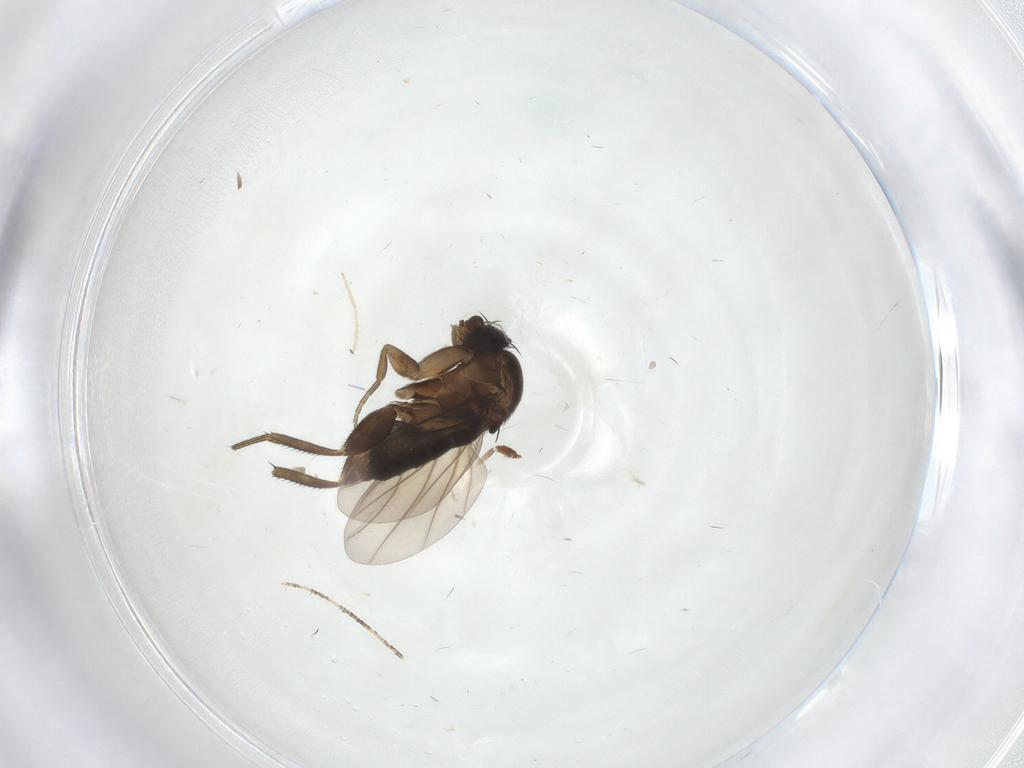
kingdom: Animalia
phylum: Arthropoda
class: Insecta
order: Diptera
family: Phoridae
